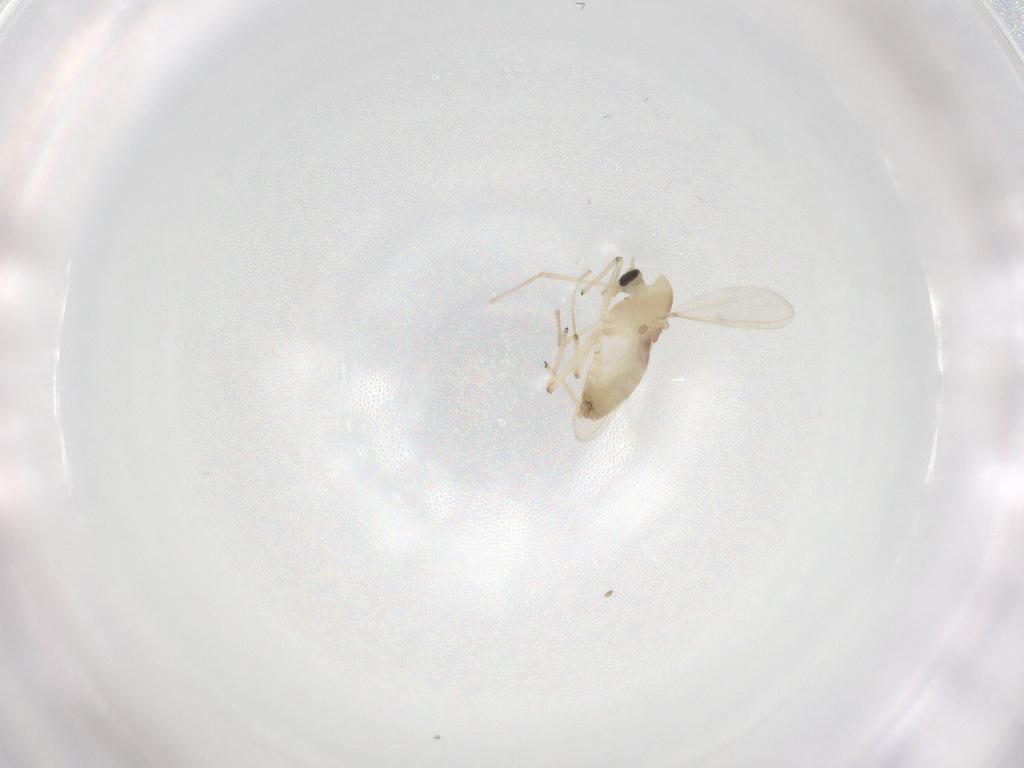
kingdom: Animalia
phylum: Arthropoda
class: Insecta
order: Diptera
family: Chironomidae
